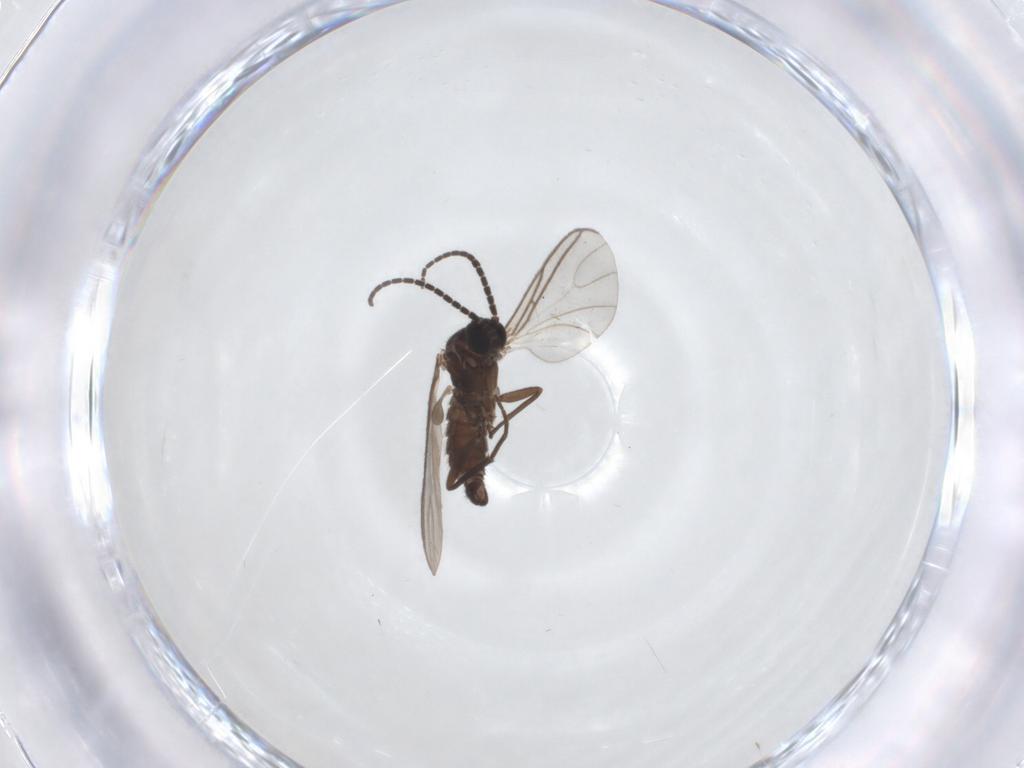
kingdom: Animalia
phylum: Arthropoda
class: Insecta
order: Diptera
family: Sciaridae
